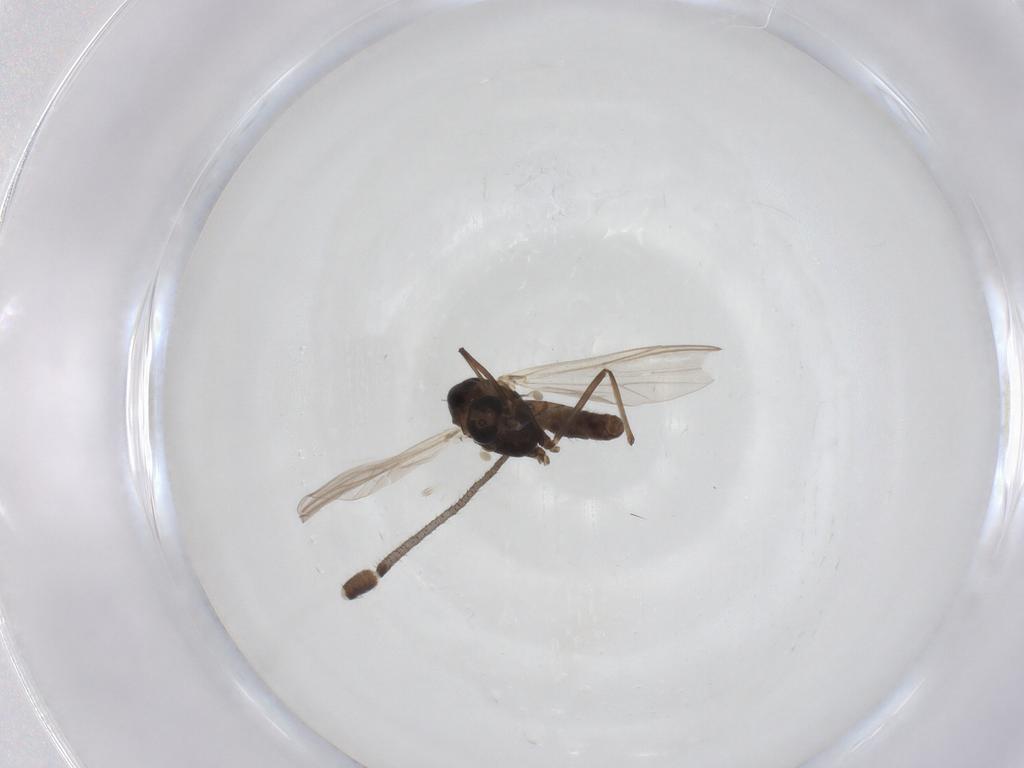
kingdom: Animalia
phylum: Arthropoda
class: Insecta
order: Diptera
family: Chironomidae
